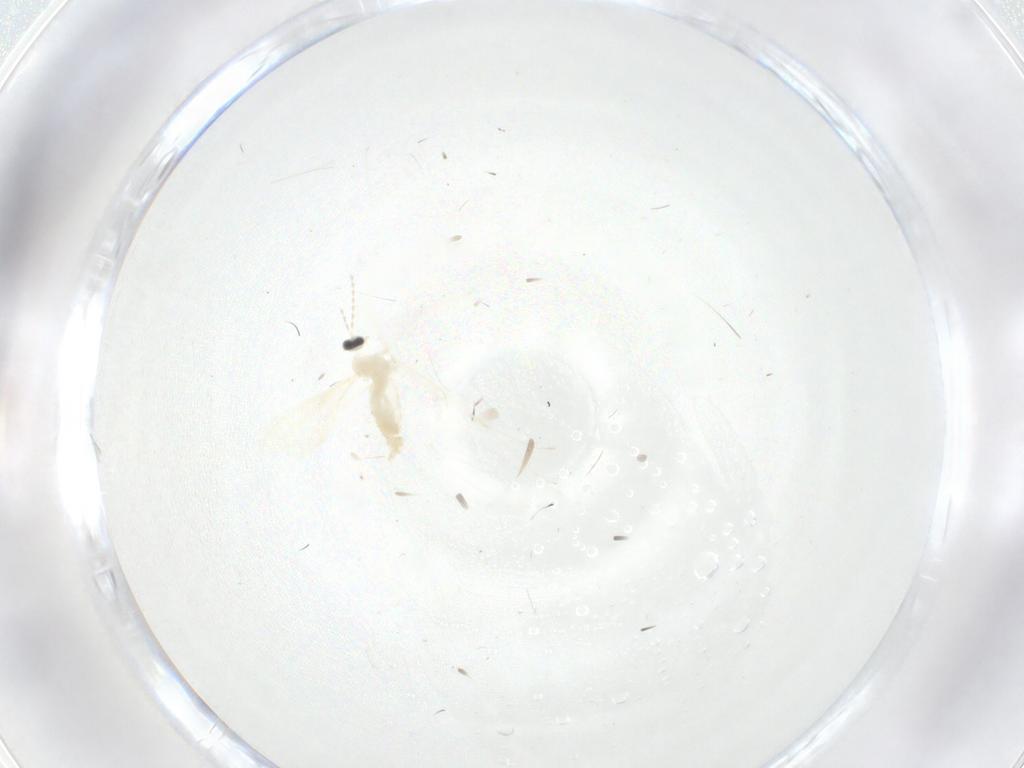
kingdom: Animalia
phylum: Arthropoda
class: Insecta
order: Diptera
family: Cecidomyiidae
